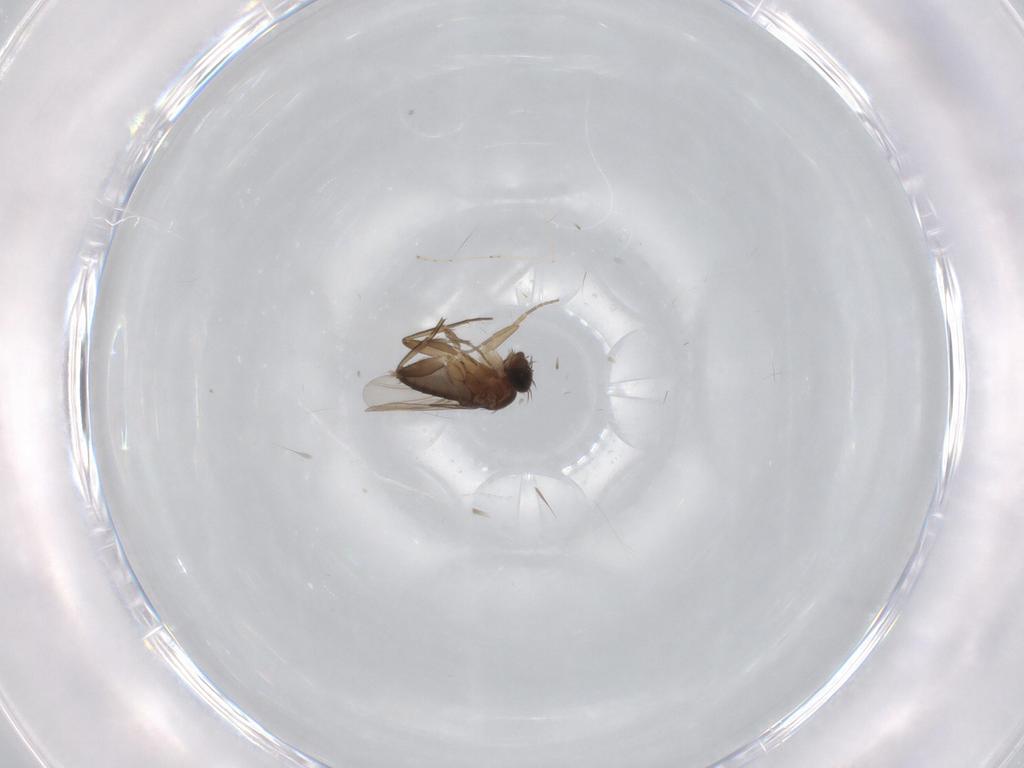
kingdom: Animalia
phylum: Arthropoda
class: Insecta
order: Diptera
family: Phoridae
